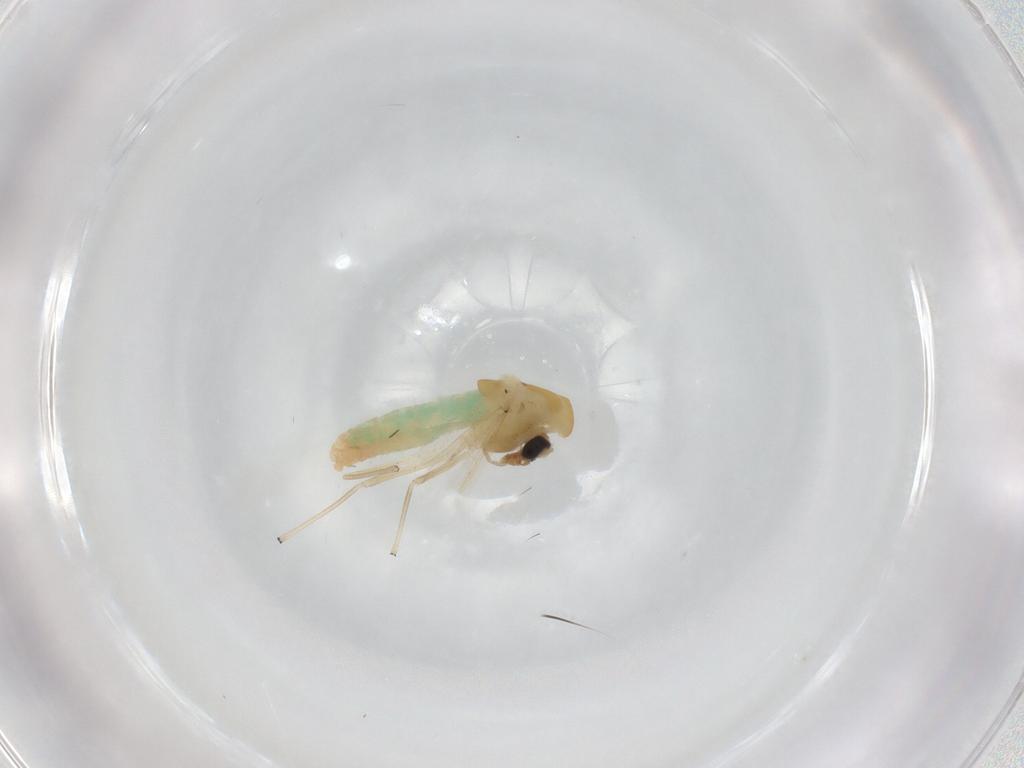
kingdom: Animalia
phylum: Arthropoda
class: Insecta
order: Diptera
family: Chironomidae
